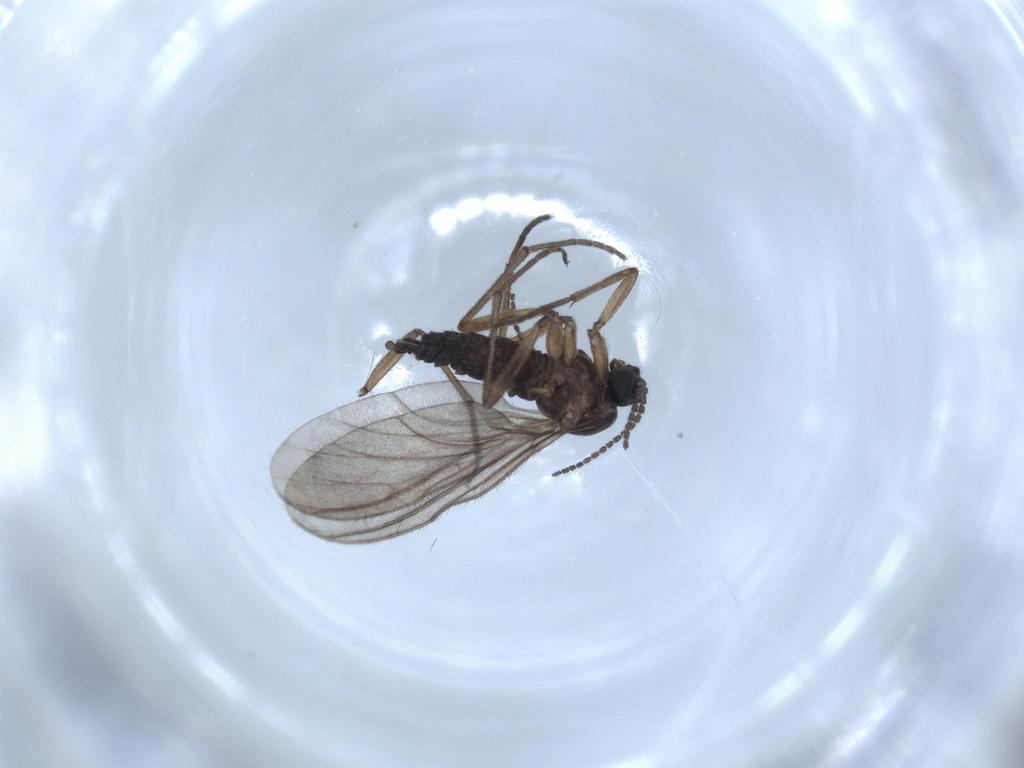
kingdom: Animalia
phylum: Arthropoda
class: Insecta
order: Diptera
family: Sciaridae
